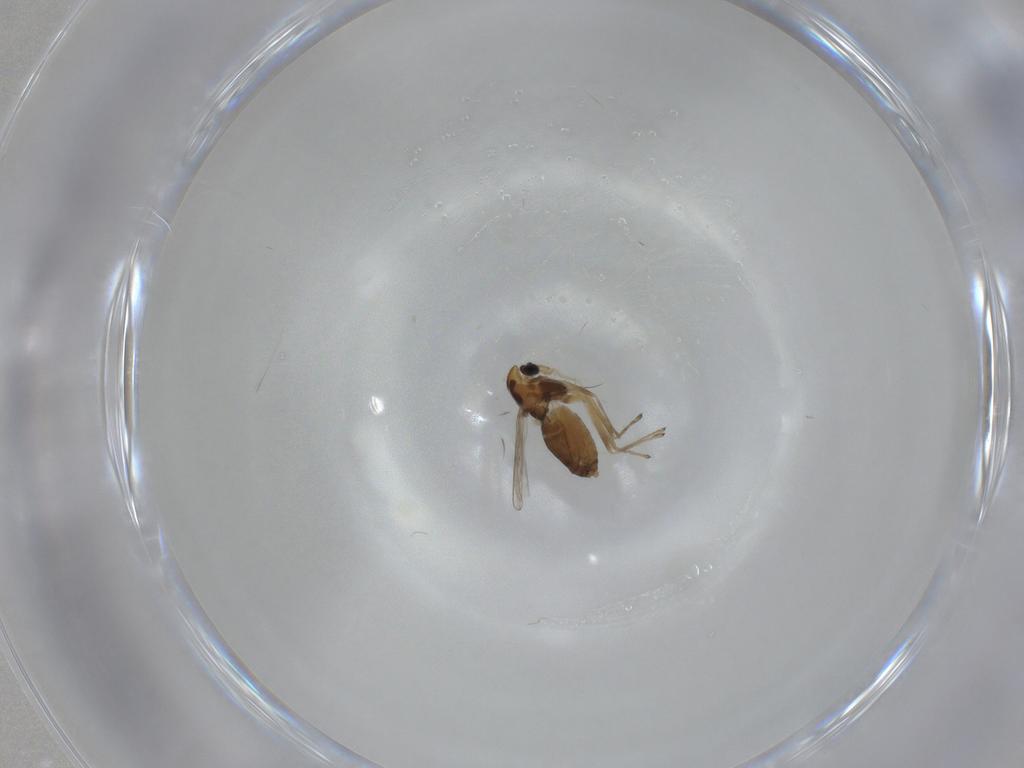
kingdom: Animalia
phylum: Arthropoda
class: Insecta
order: Diptera
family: Chironomidae
